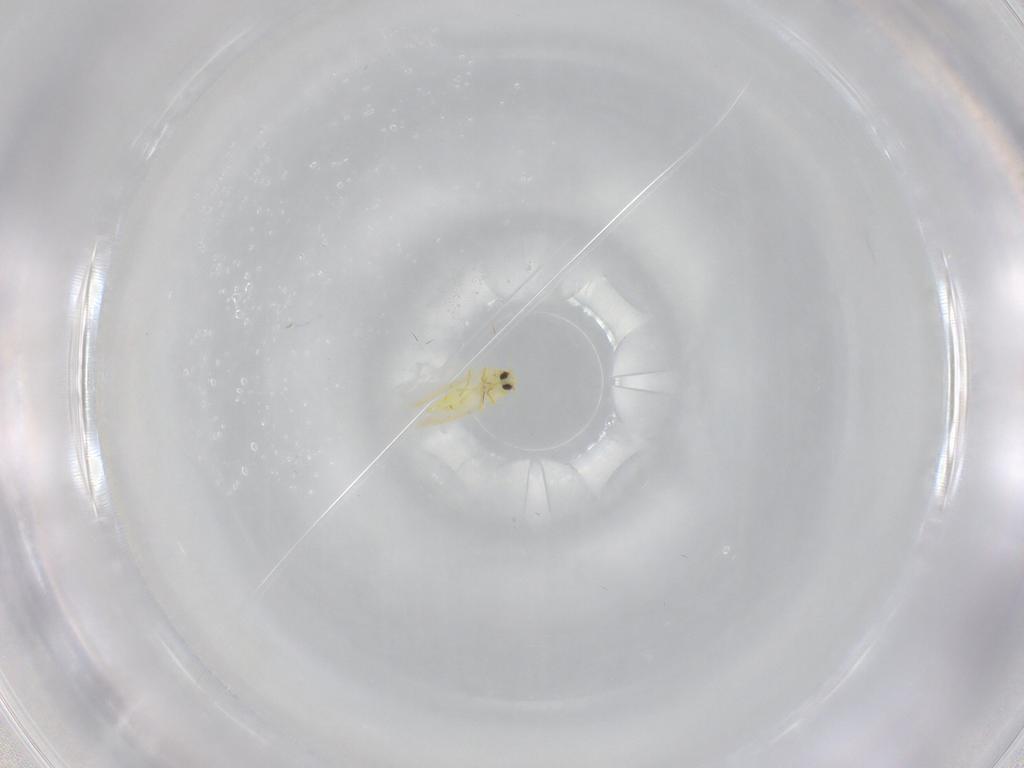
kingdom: Animalia
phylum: Arthropoda
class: Insecta
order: Hemiptera
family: Aleyrodidae
